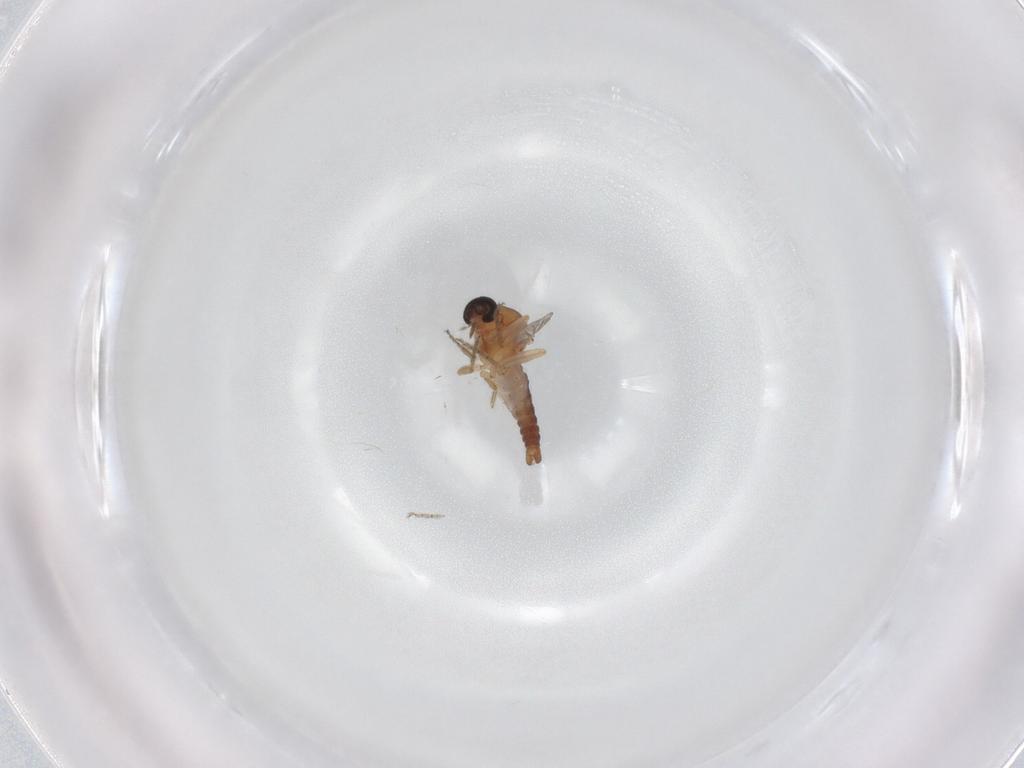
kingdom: Animalia
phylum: Arthropoda
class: Insecta
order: Diptera
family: Ceratopogonidae
